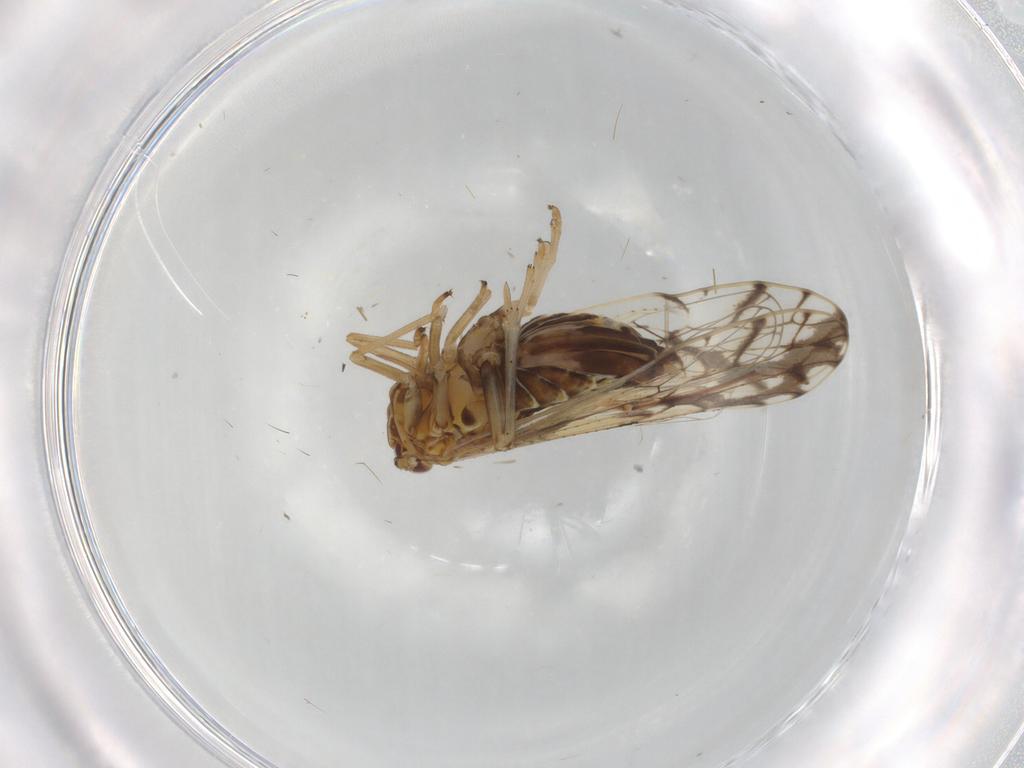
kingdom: Animalia
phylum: Arthropoda
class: Insecta
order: Hemiptera
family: Delphacidae
